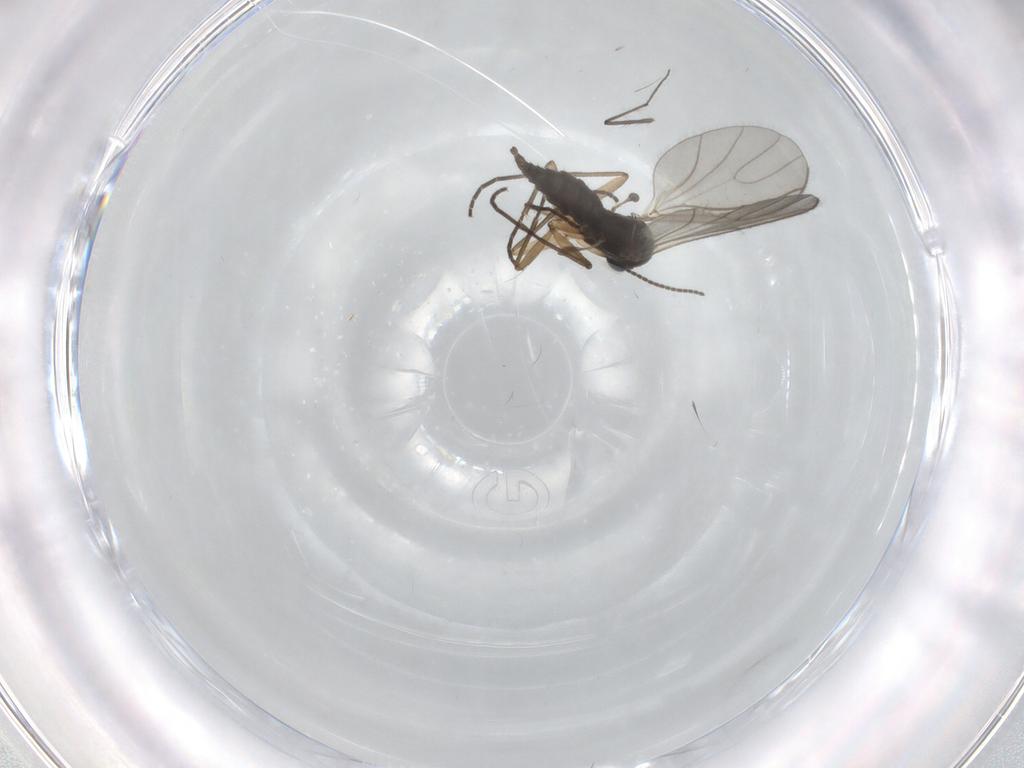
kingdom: Animalia
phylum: Arthropoda
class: Insecta
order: Diptera
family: Sciaridae
